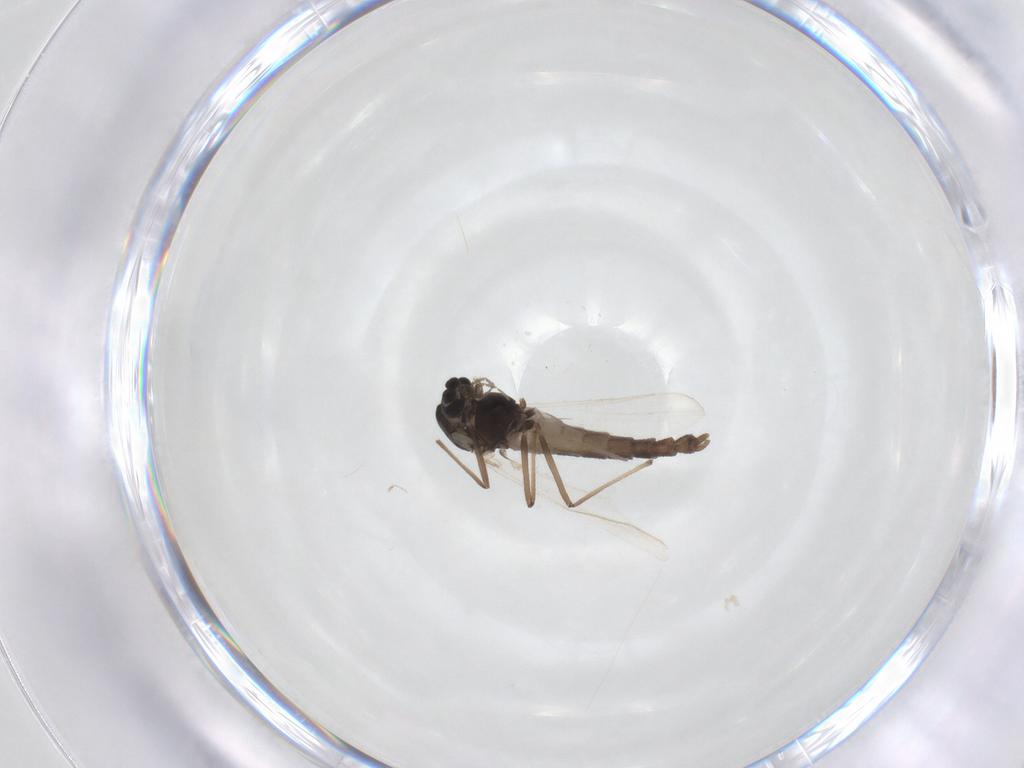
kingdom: Animalia
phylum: Arthropoda
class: Insecta
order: Diptera
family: Chironomidae
